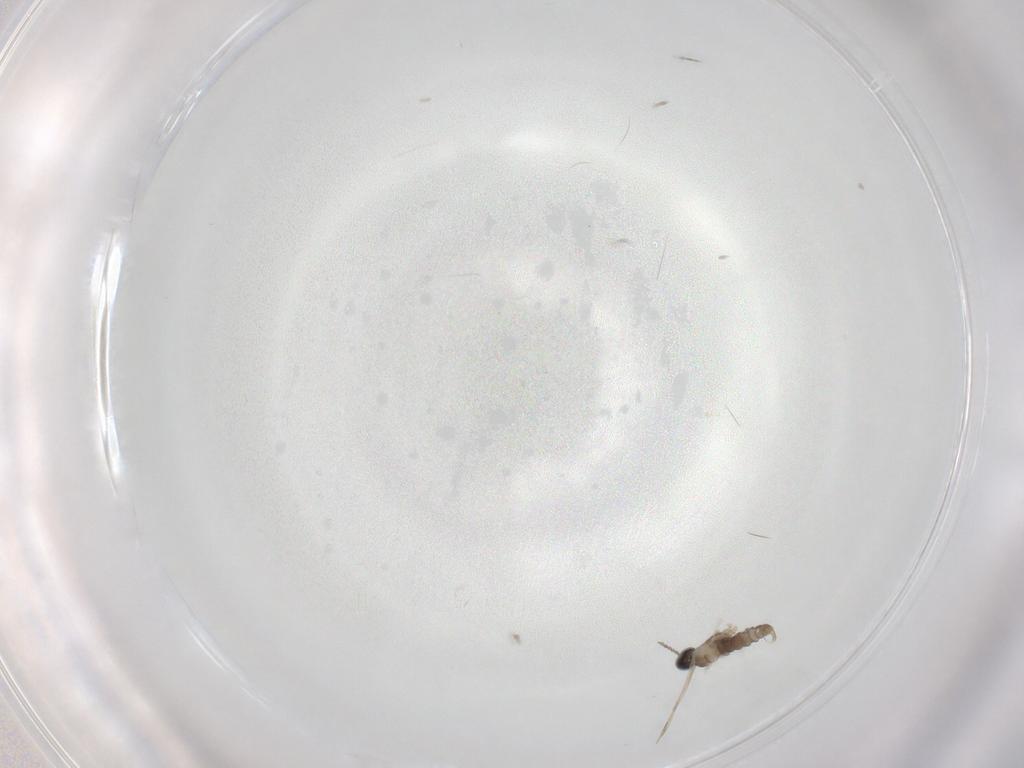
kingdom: Animalia
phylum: Arthropoda
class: Insecta
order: Diptera
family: Cecidomyiidae
